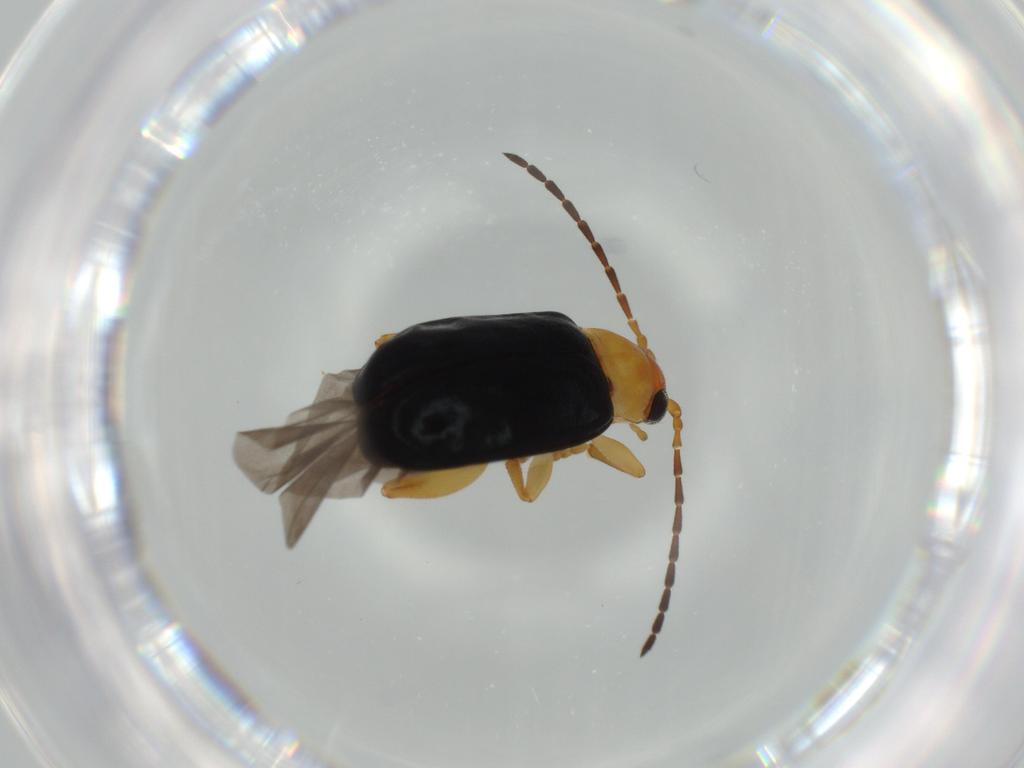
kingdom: Animalia
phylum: Arthropoda
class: Insecta
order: Coleoptera
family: Chrysomelidae
